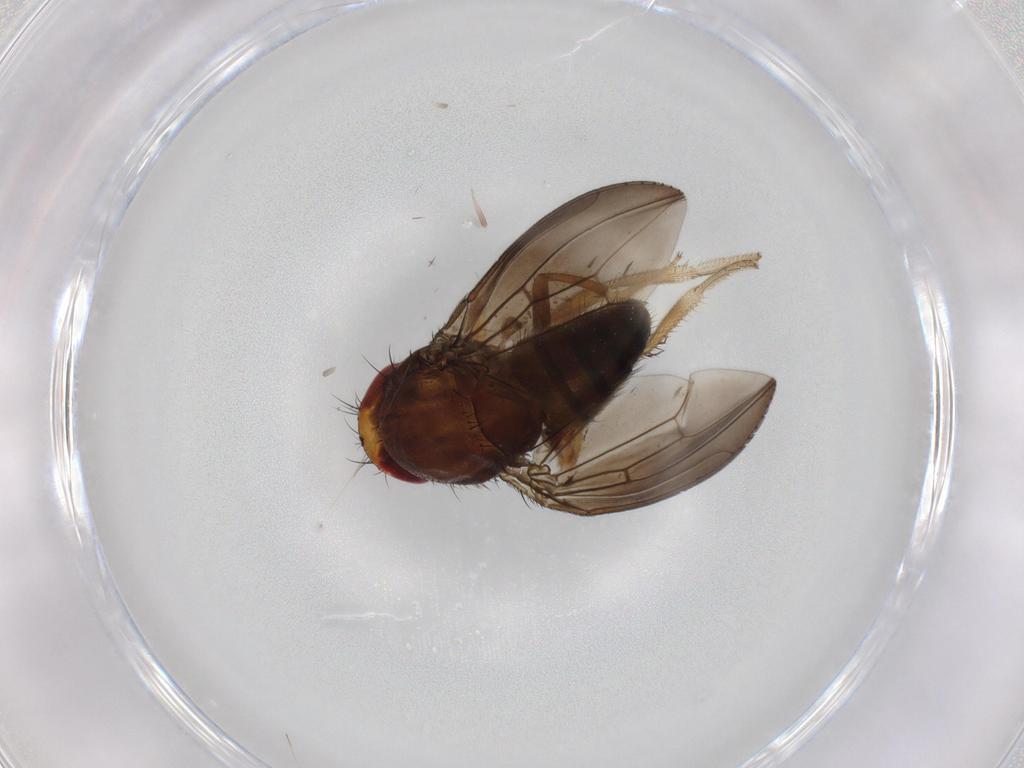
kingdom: Animalia
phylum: Arthropoda
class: Insecta
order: Diptera
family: Drosophilidae
